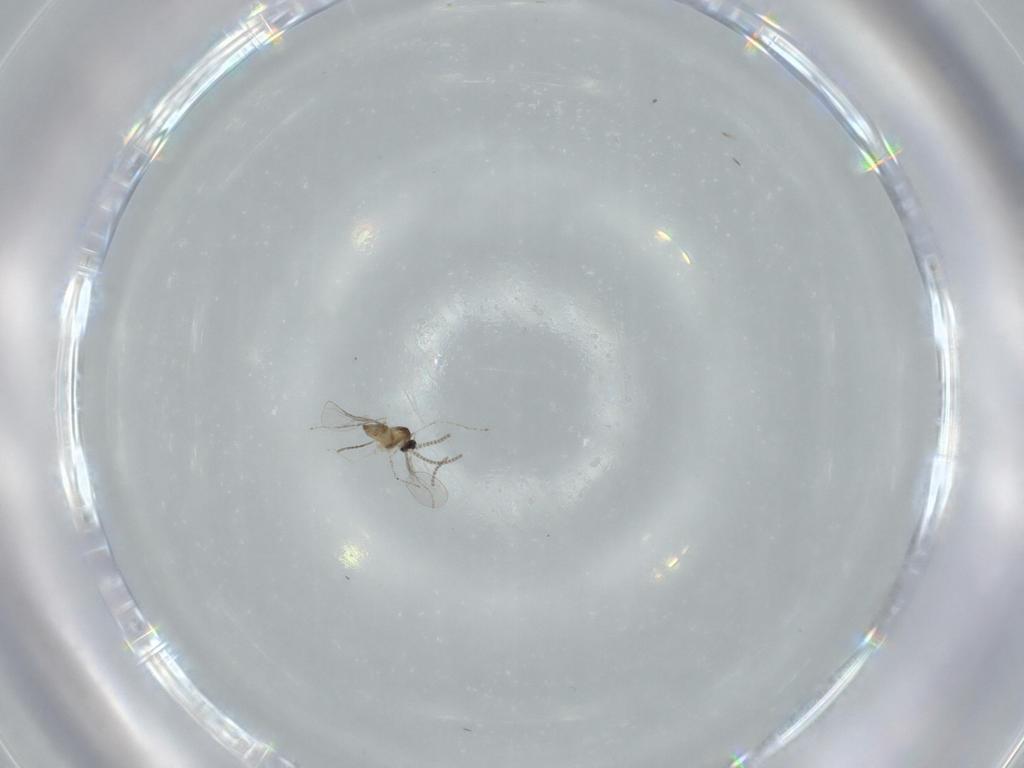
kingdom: Animalia
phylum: Arthropoda
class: Insecta
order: Diptera
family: Cecidomyiidae
